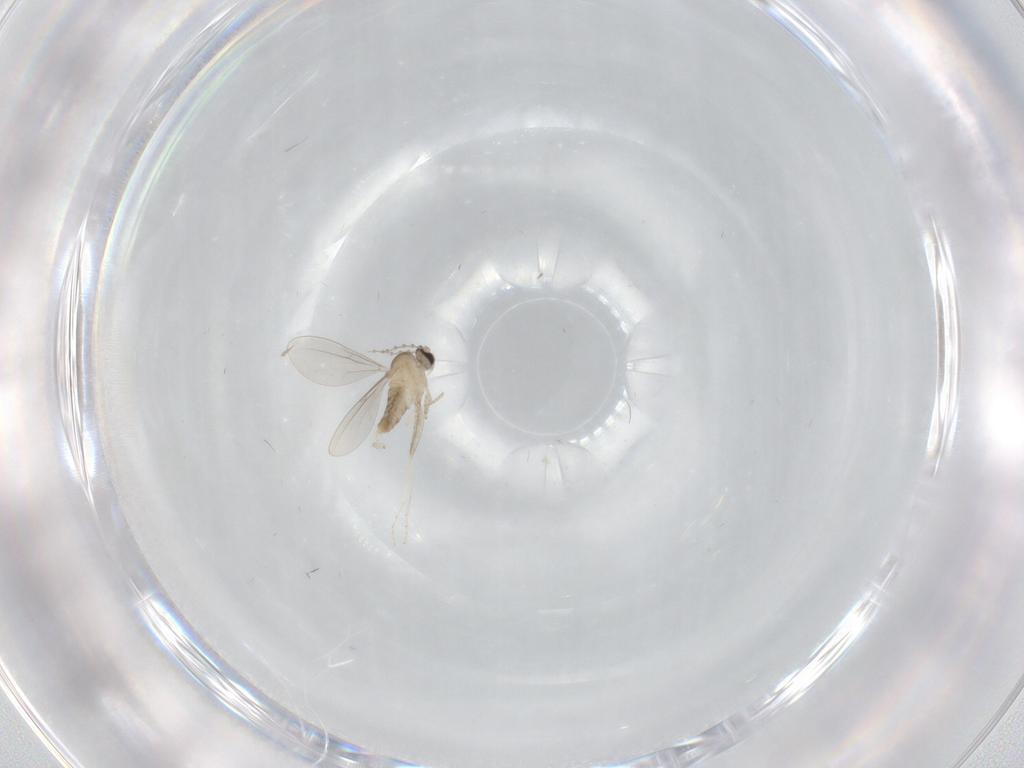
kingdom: Animalia
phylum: Arthropoda
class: Insecta
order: Diptera
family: Cecidomyiidae
